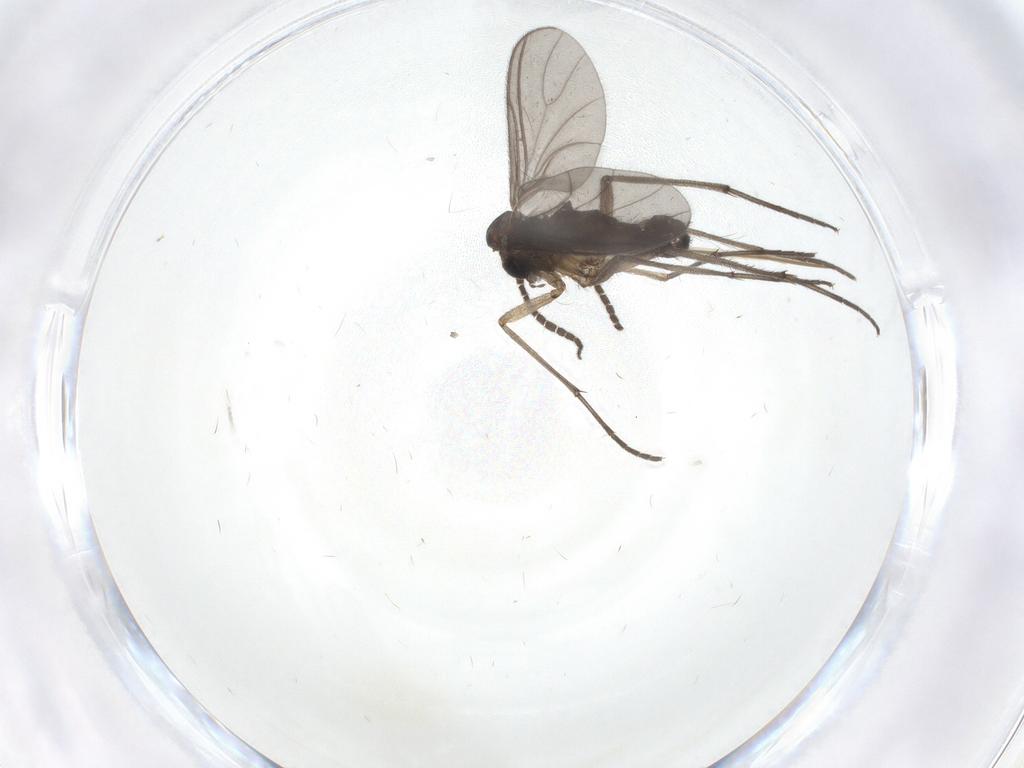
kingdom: Animalia
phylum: Arthropoda
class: Insecta
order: Diptera
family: Sciaridae
